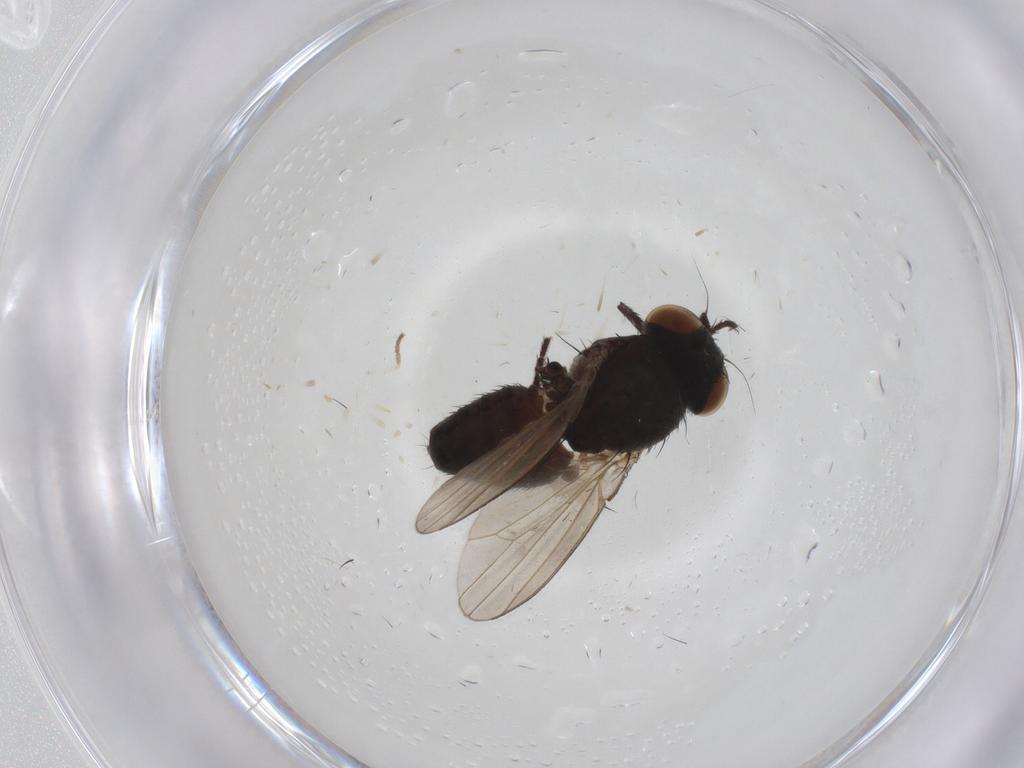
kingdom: Animalia
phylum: Arthropoda
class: Insecta
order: Diptera
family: Milichiidae
